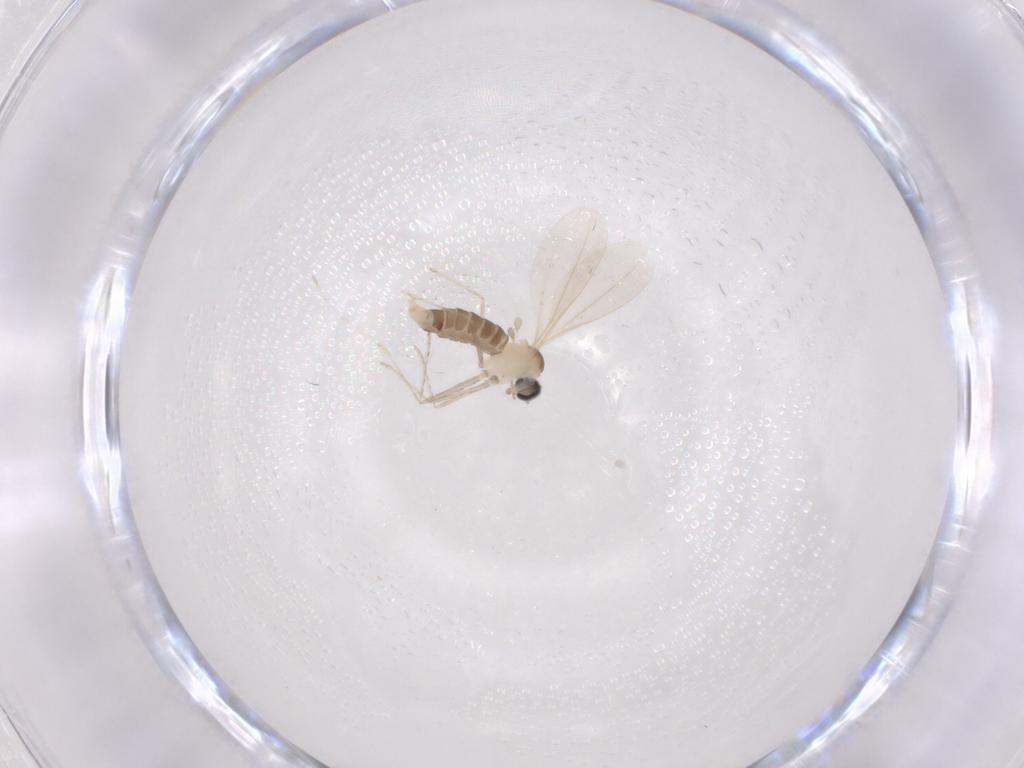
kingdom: Animalia
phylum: Arthropoda
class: Insecta
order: Diptera
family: Cecidomyiidae
